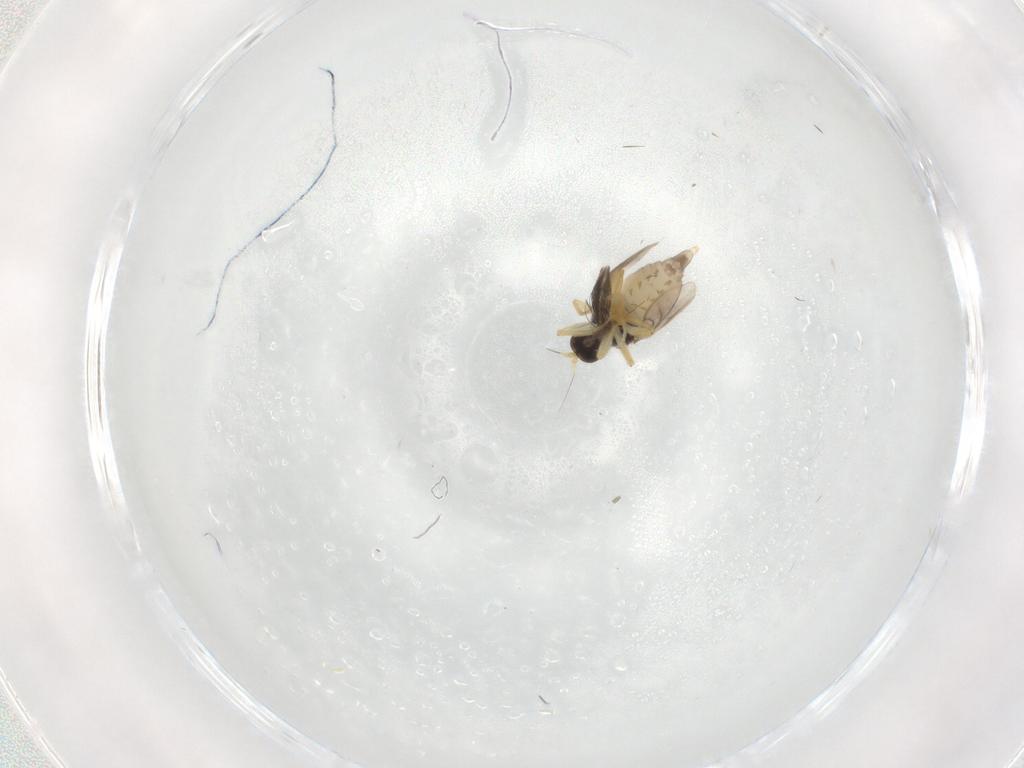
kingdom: Animalia
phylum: Arthropoda
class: Insecta
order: Diptera
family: Hybotidae
